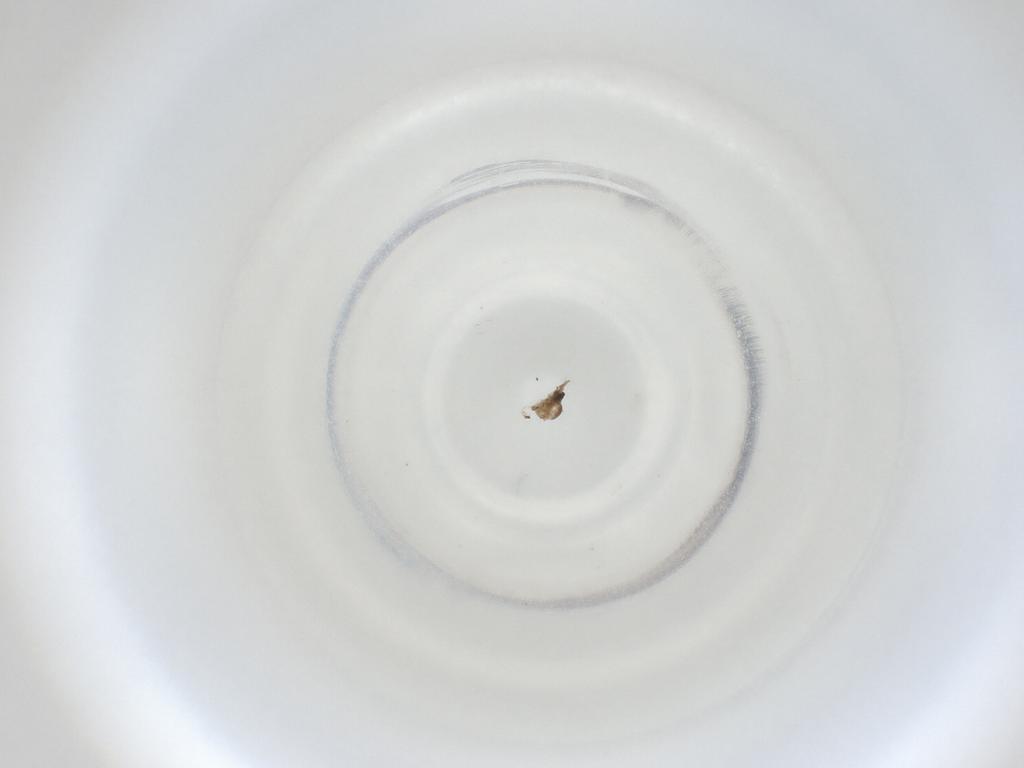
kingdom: Animalia
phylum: Arthropoda
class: Insecta
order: Diptera
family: Cecidomyiidae
